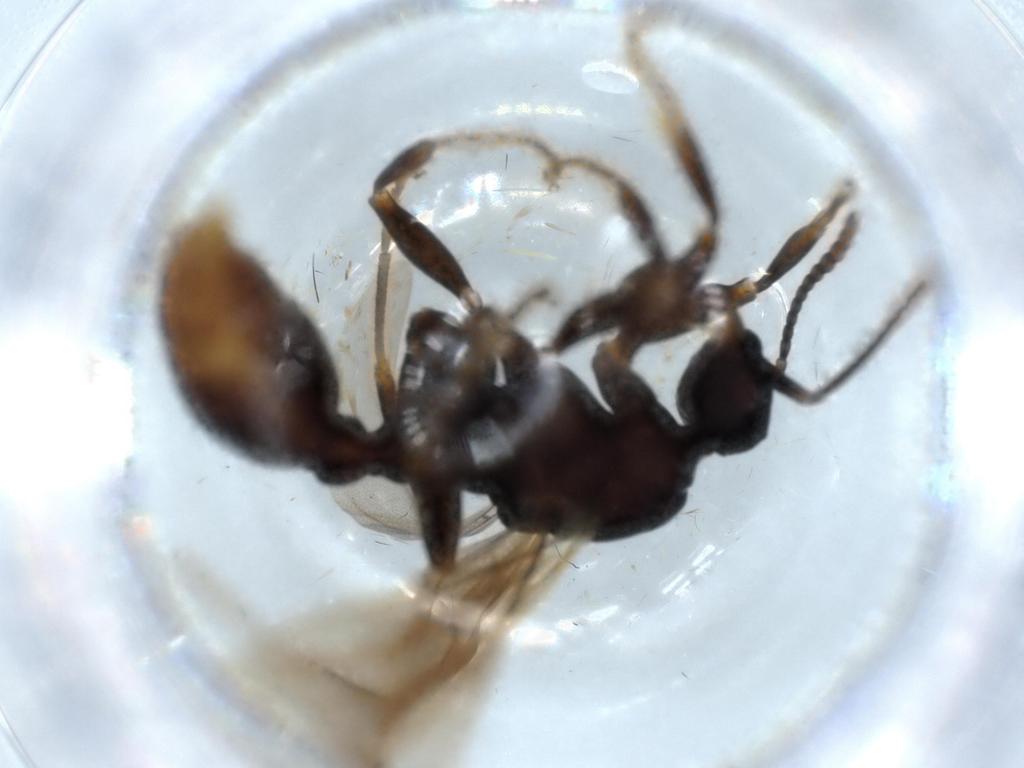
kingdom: Animalia
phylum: Arthropoda
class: Insecta
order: Hymenoptera
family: Formicidae
